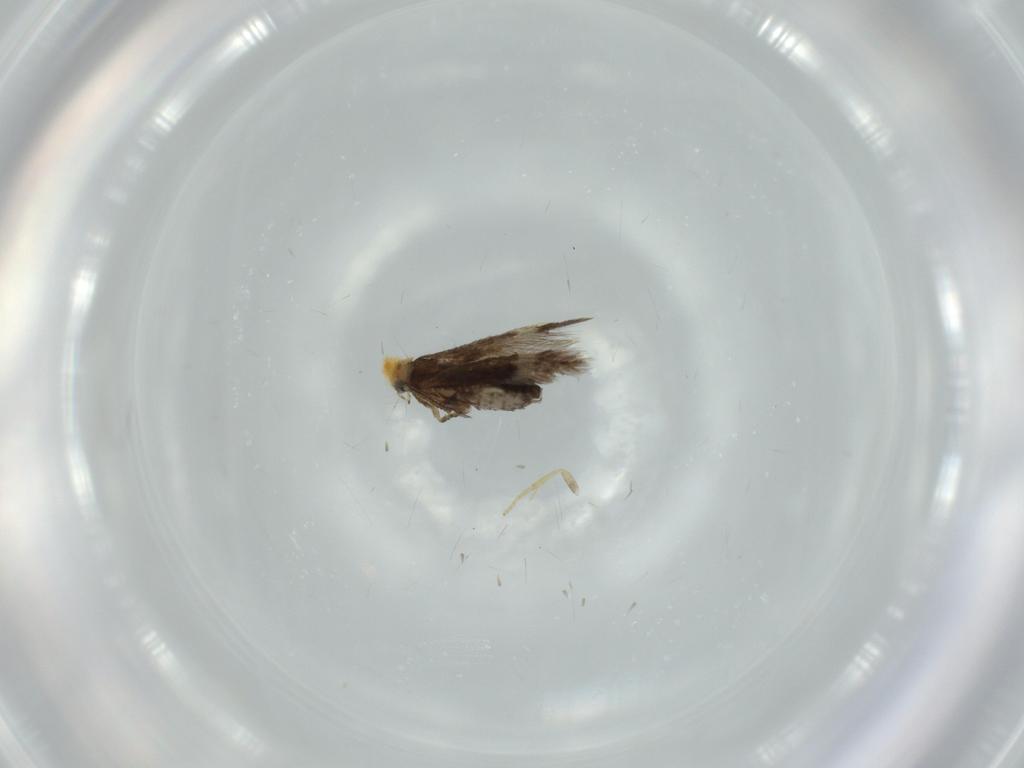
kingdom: Animalia
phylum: Arthropoda
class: Insecta
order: Lepidoptera
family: Nepticulidae
